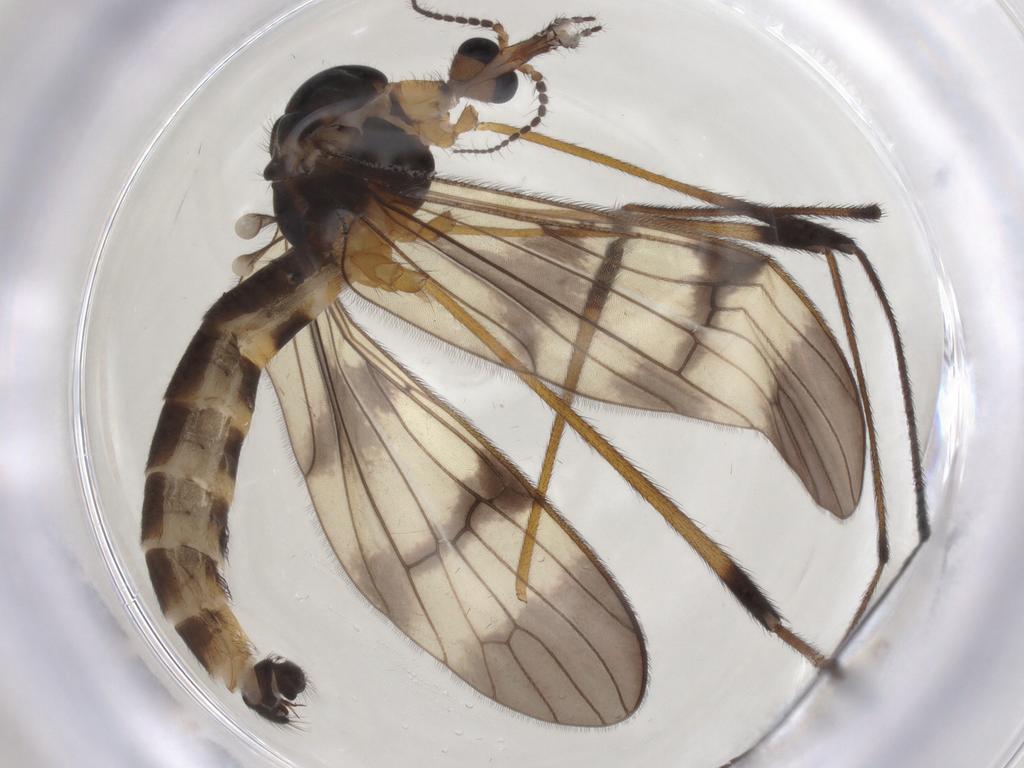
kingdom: Animalia
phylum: Arthropoda
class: Insecta
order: Diptera
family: Limoniidae
